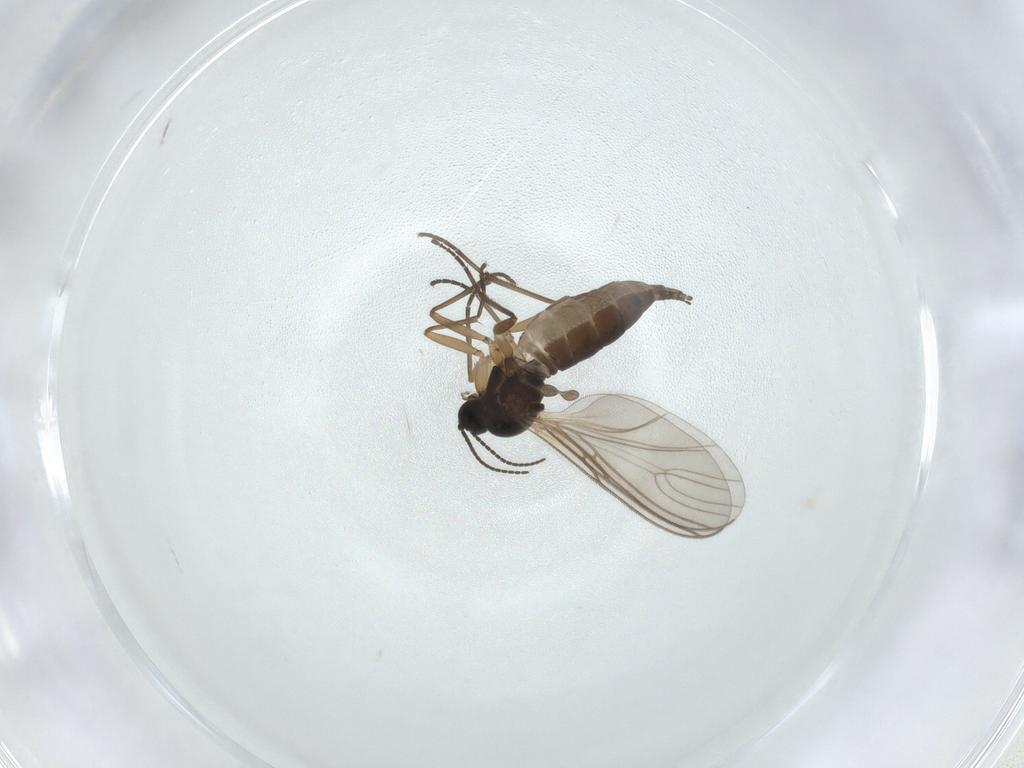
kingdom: Animalia
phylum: Arthropoda
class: Insecta
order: Diptera
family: Sciaridae
